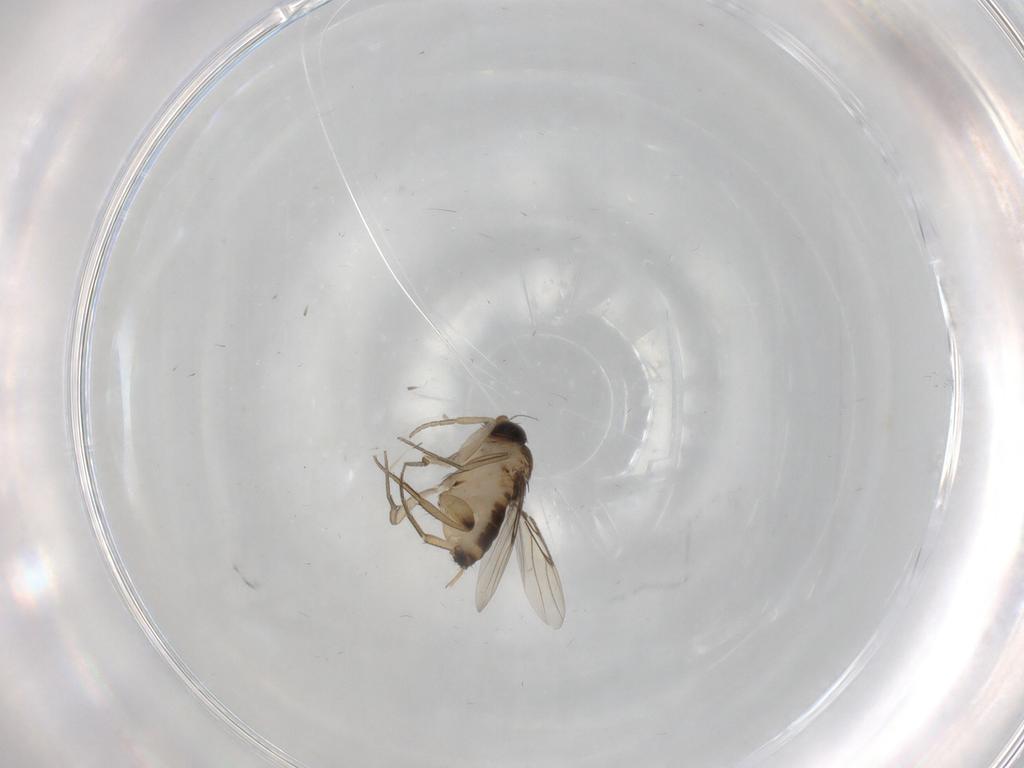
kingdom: Animalia
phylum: Arthropoda
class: Insecta
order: Diptera
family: Sciaridae
